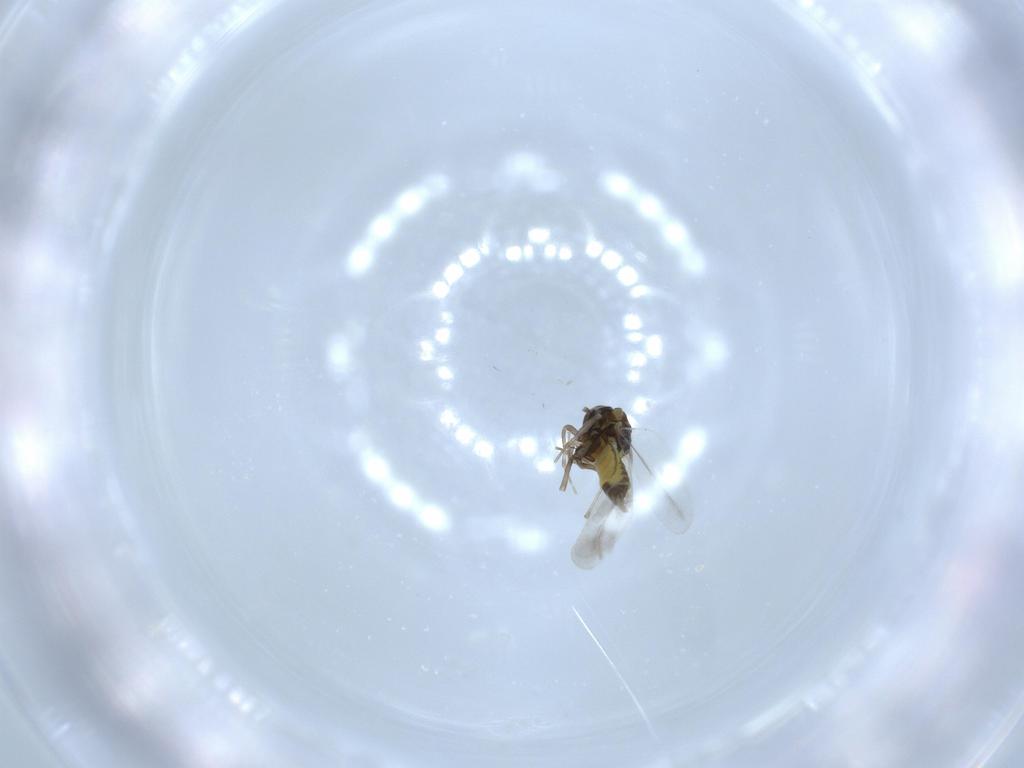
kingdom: Animalia
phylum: Arthropoda
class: Insecta
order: Hemiptera
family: Aleyrodidae
